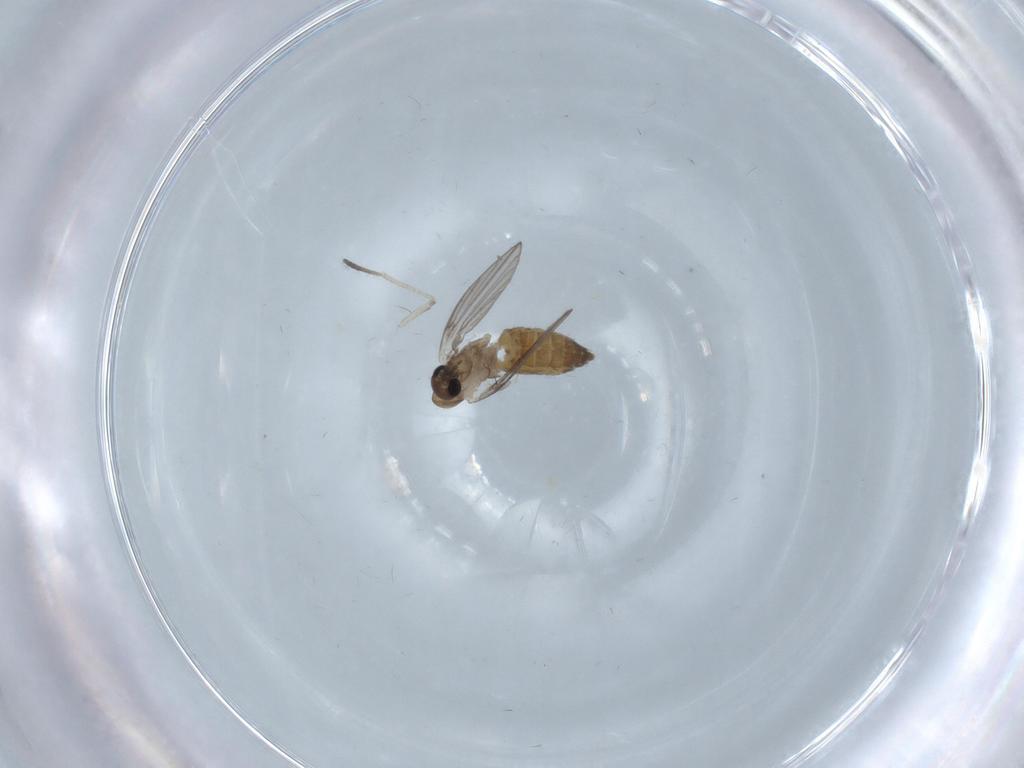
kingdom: Animalia
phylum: Arthropoda
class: Insecta
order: Diptera
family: Psychodidae
